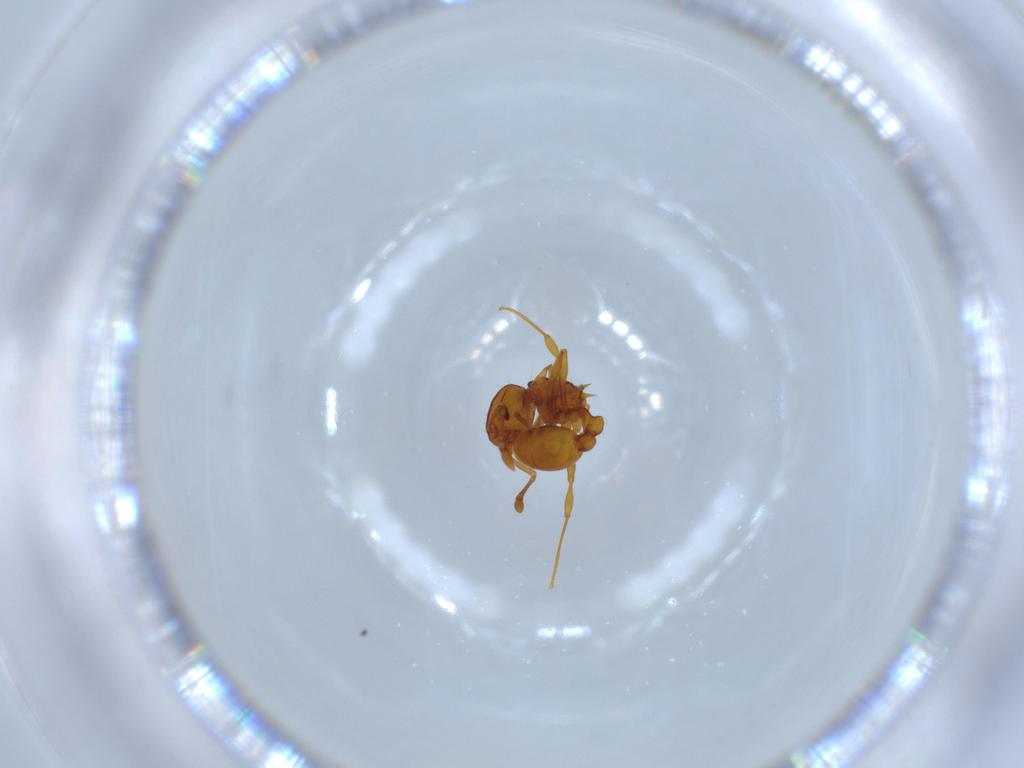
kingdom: Animalia
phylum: Arthropoda
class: Insecta
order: Hymenoptera
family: Formicidae
